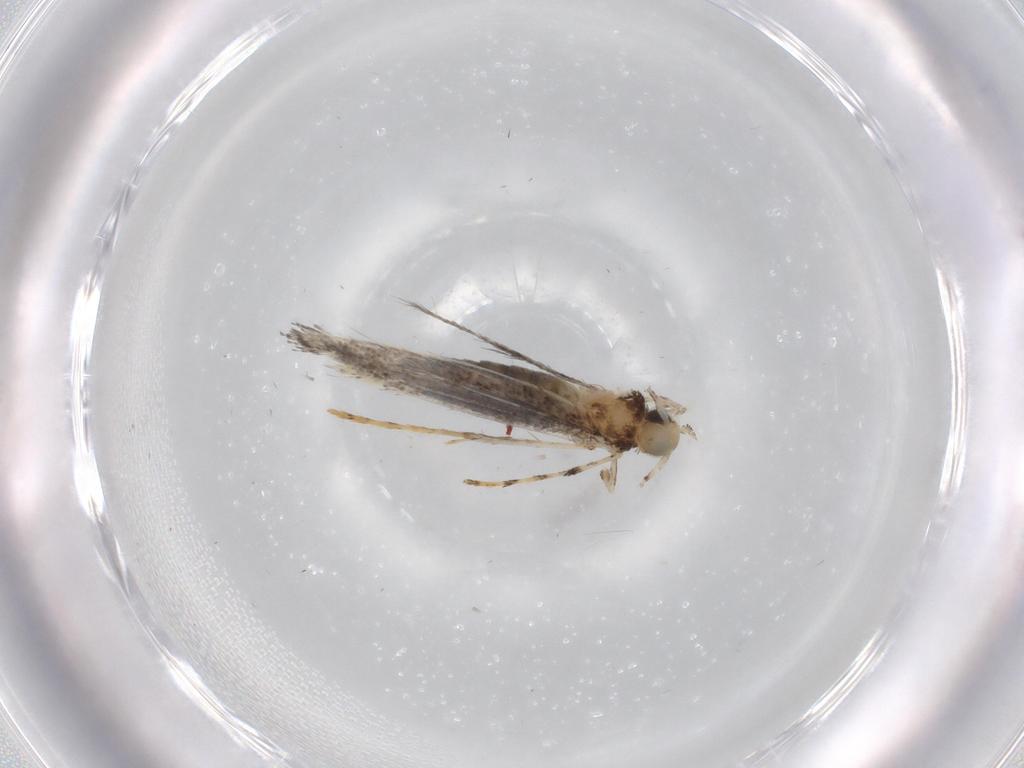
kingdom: Animalia
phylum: Arthropoda
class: Insecta
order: Lepidoptera
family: Gracillariidae
